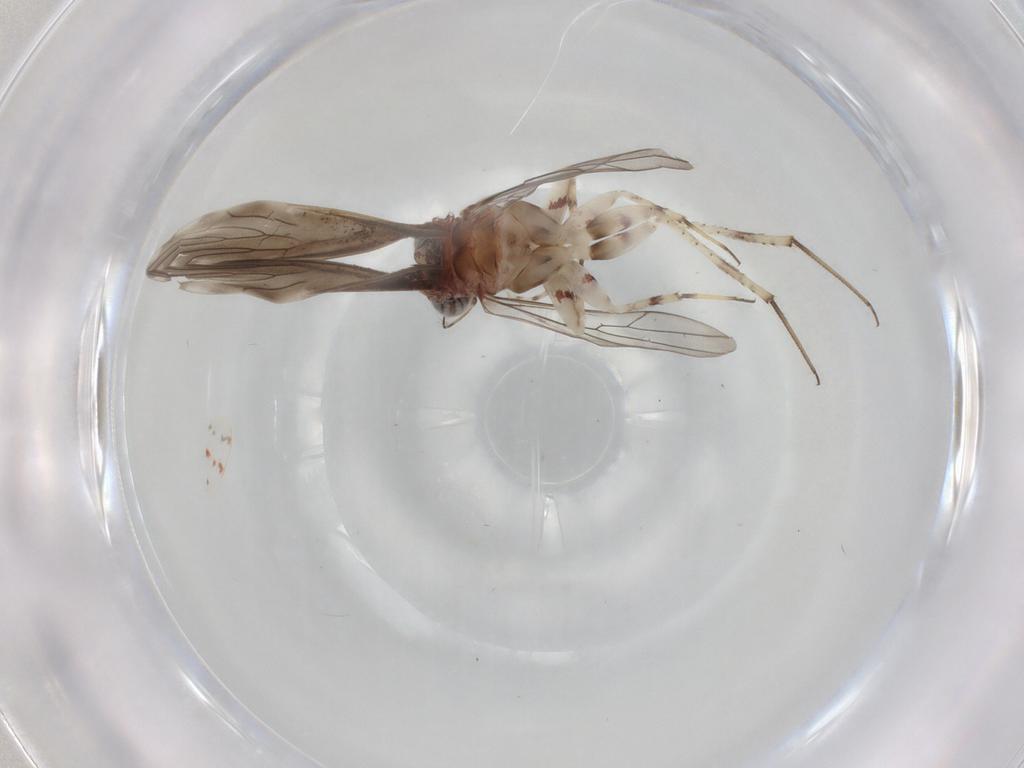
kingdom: Animalia
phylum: Arthropoda
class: Insecta
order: Psocodea
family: Amphientomidae
